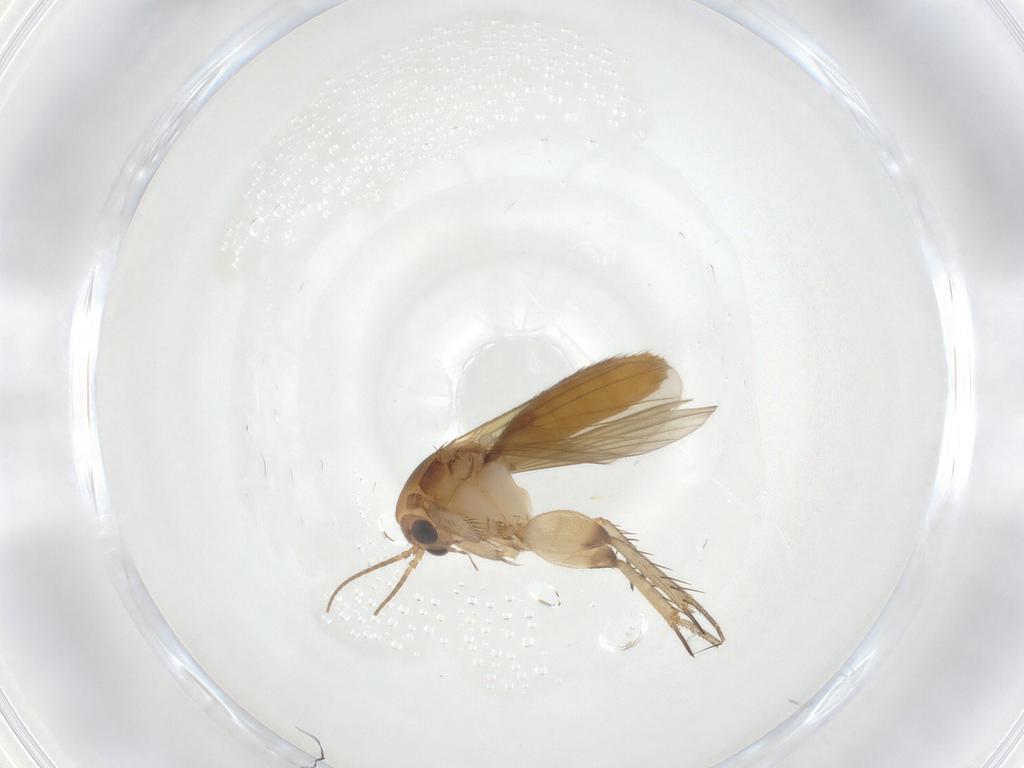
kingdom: Animalia
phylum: Arthropoda
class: Insecta
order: Diptera
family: Mycetophilidae
